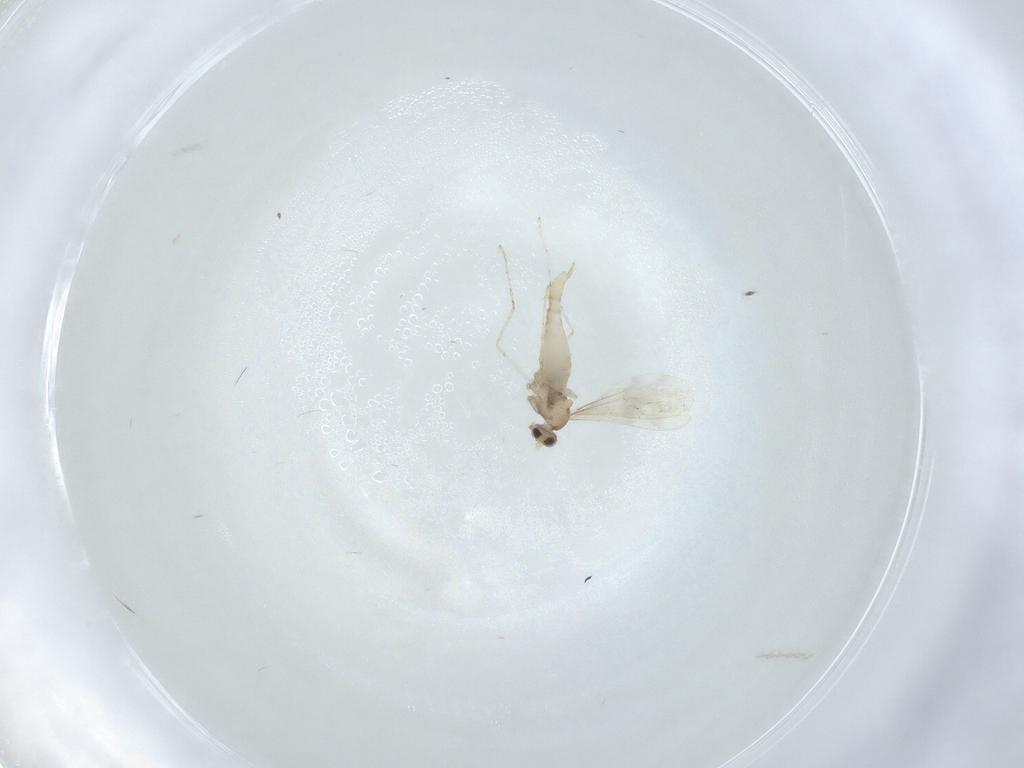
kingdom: Animalia
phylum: Arthropoda
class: Insecta
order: Diptera
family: Cecidomyiidae
